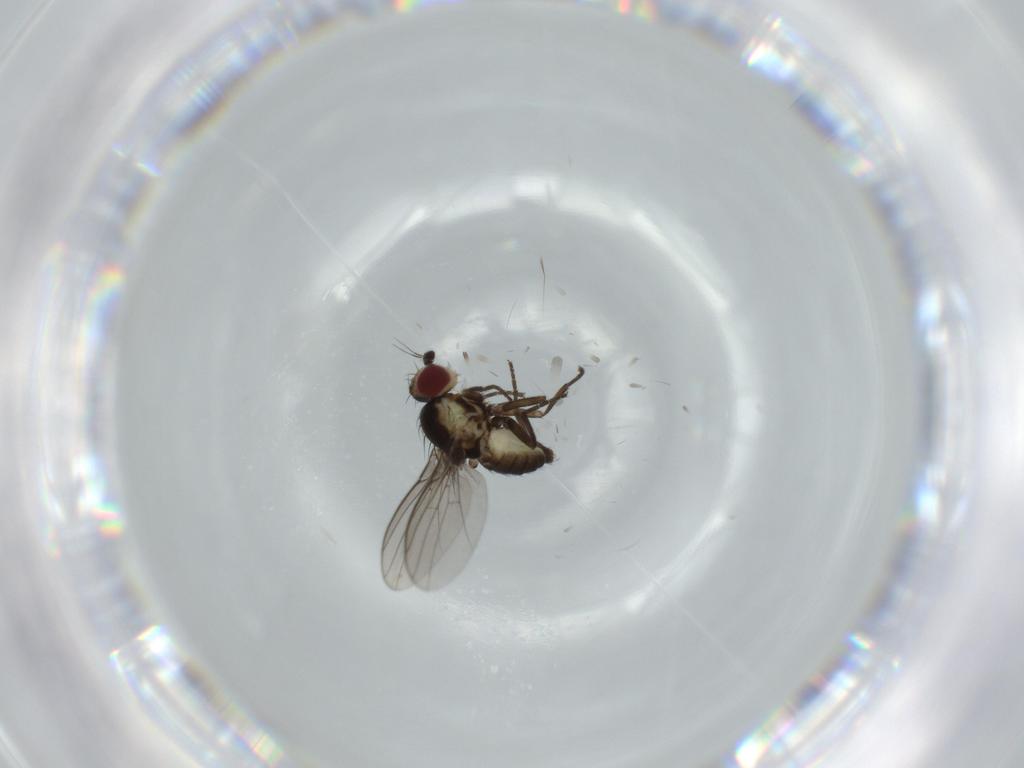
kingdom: Animalia
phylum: Arthropoda
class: Insecta
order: Diptera
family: Agromyzidae
